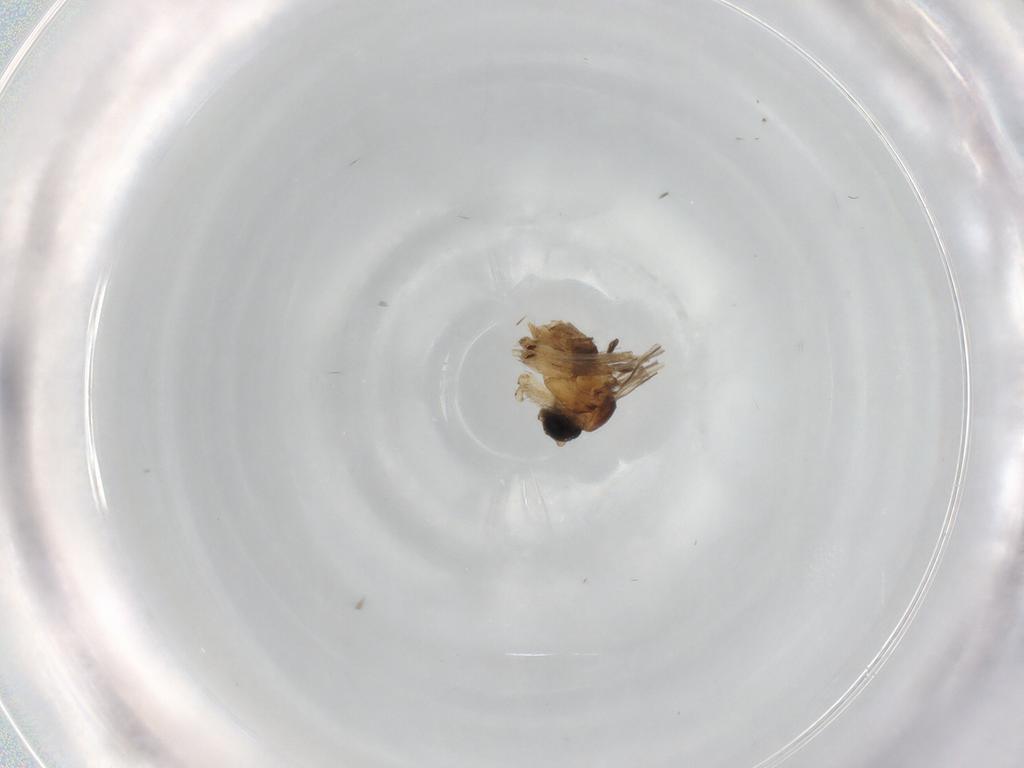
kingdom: Animalia
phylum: Arthropoda
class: Insecta
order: Diptera
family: Sciaridae
